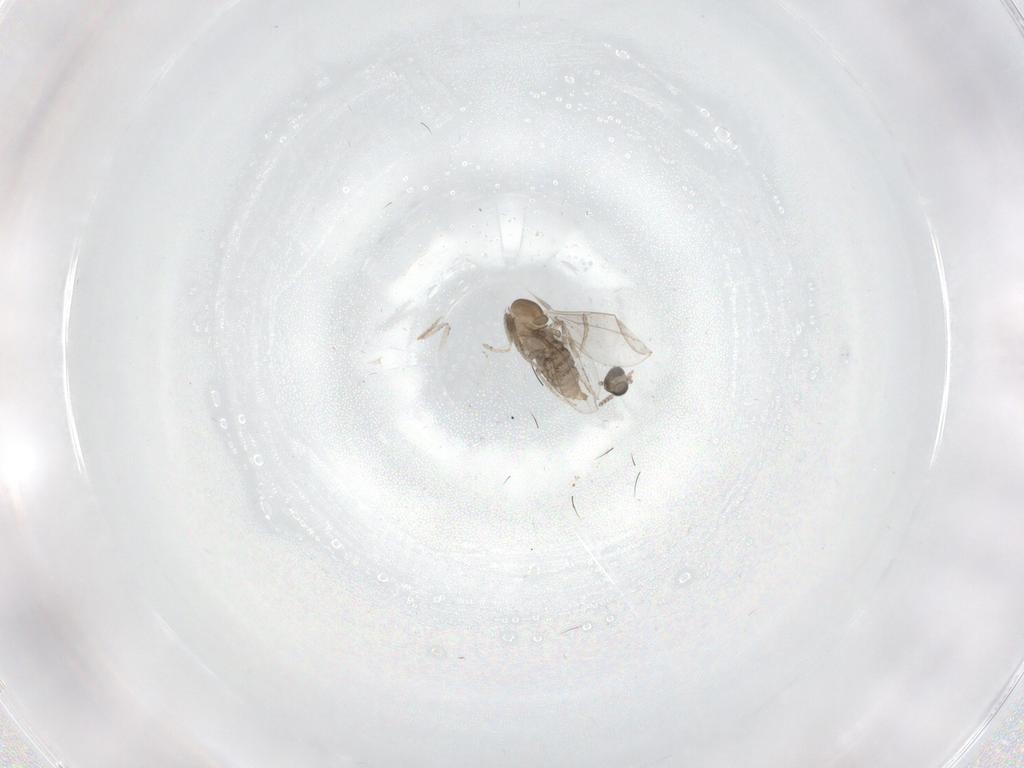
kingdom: Animalia
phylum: Arthropoda
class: Insecta
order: Diptera
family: Cecidomyiidae
